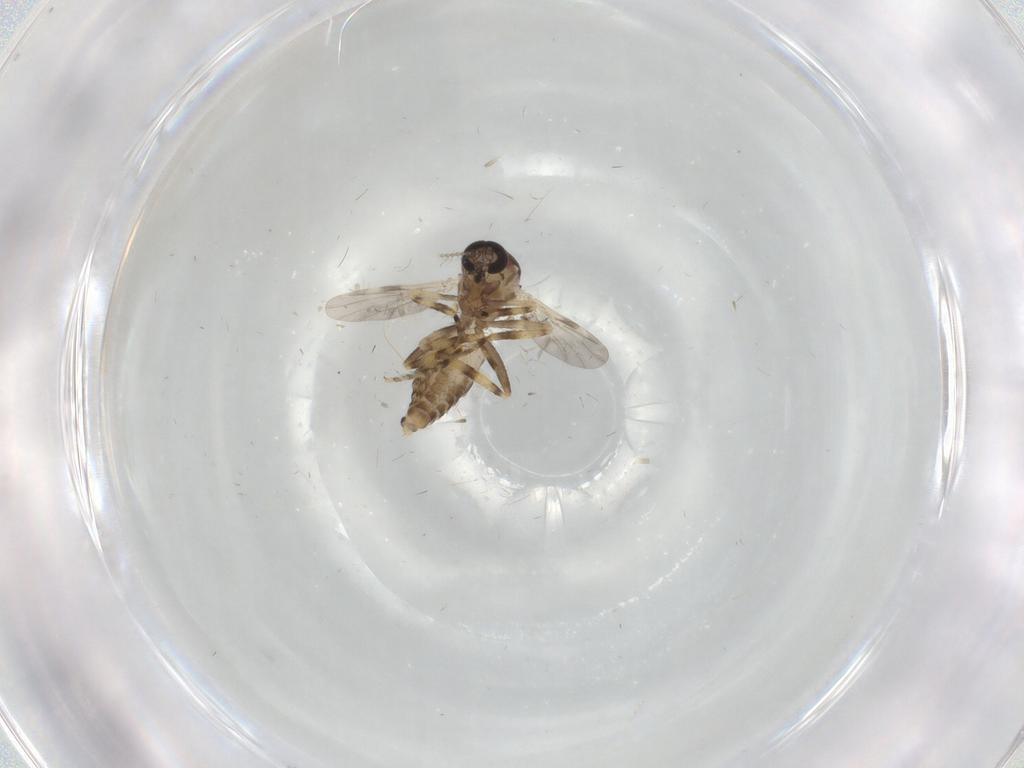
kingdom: Animalia
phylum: Arthropoda
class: Insecta
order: Diptera
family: Ceratopogonidae
